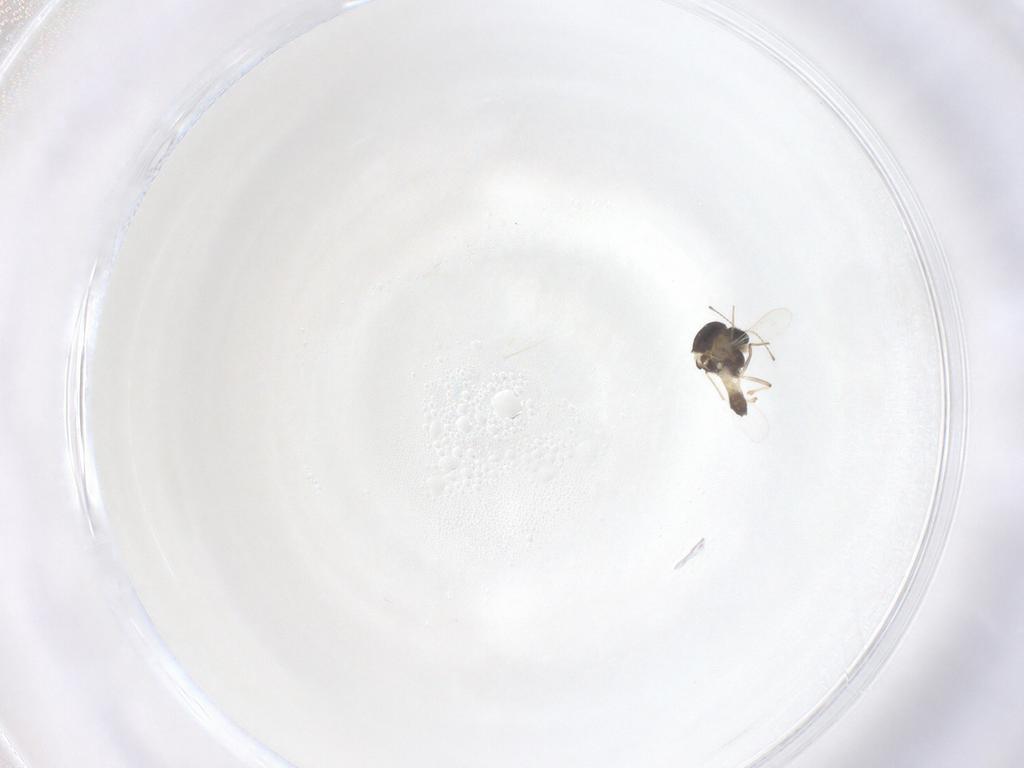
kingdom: Animalia
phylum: Arthropoda
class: Insecta
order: Diptera
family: Chironomidae
